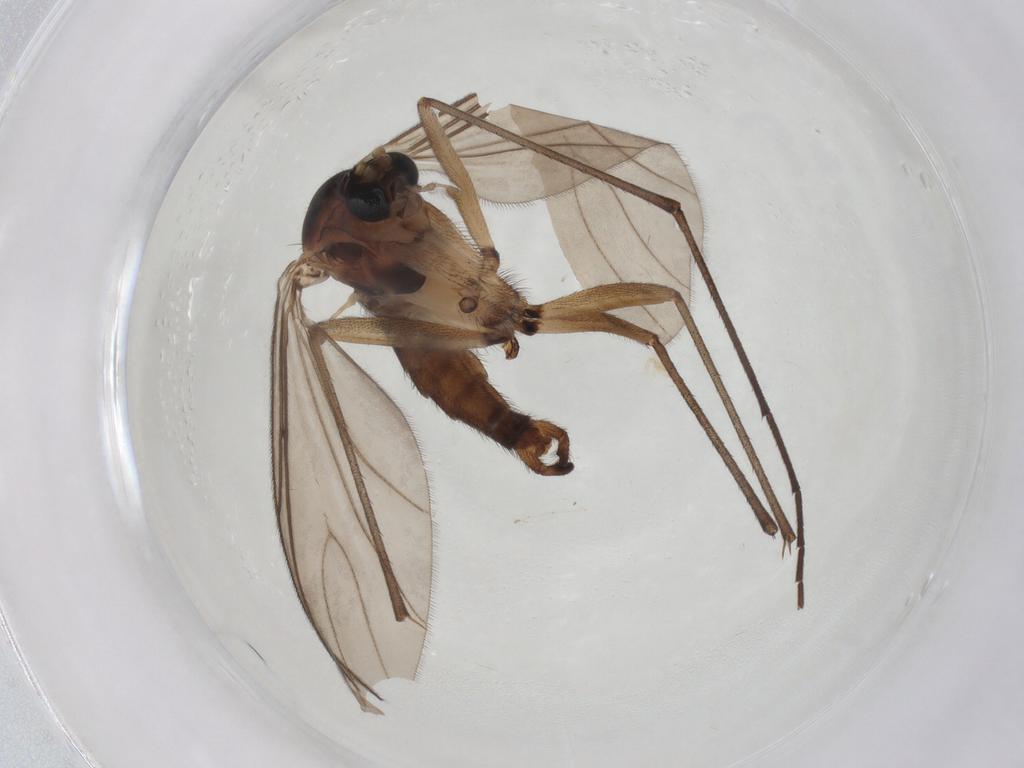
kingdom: Animalia
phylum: Arthropoda
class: Insecta
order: Diptera
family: Sciaridae
